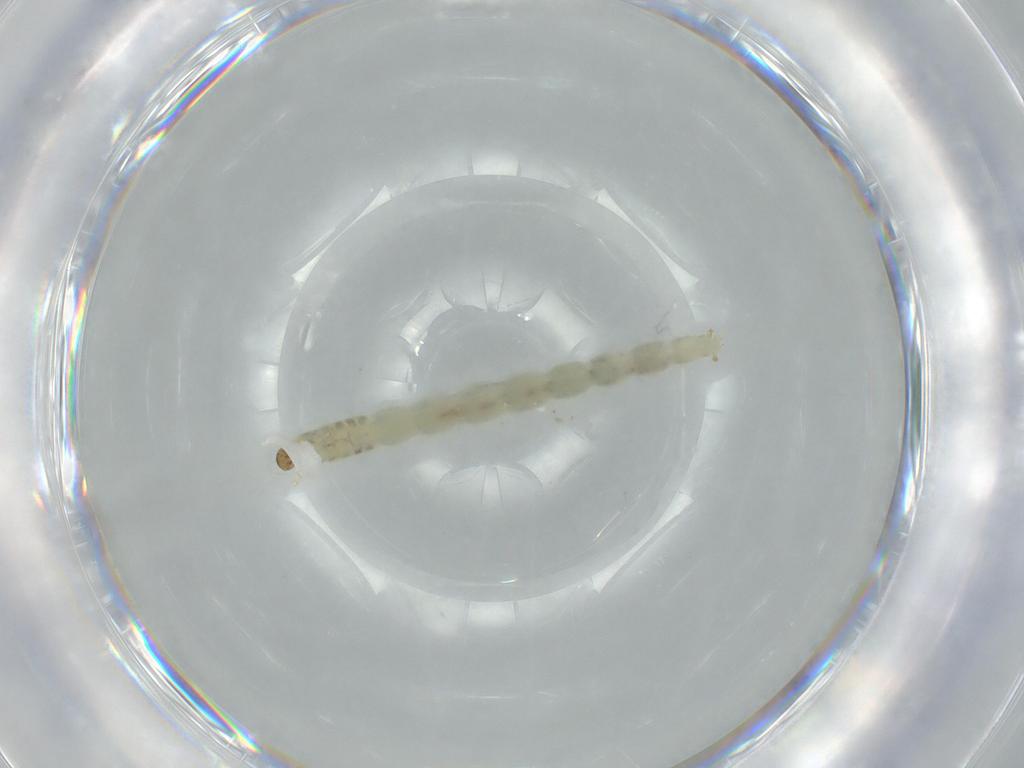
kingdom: Animalia
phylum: Arthropoda
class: Insecta
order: Diptera
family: Chironomidae
